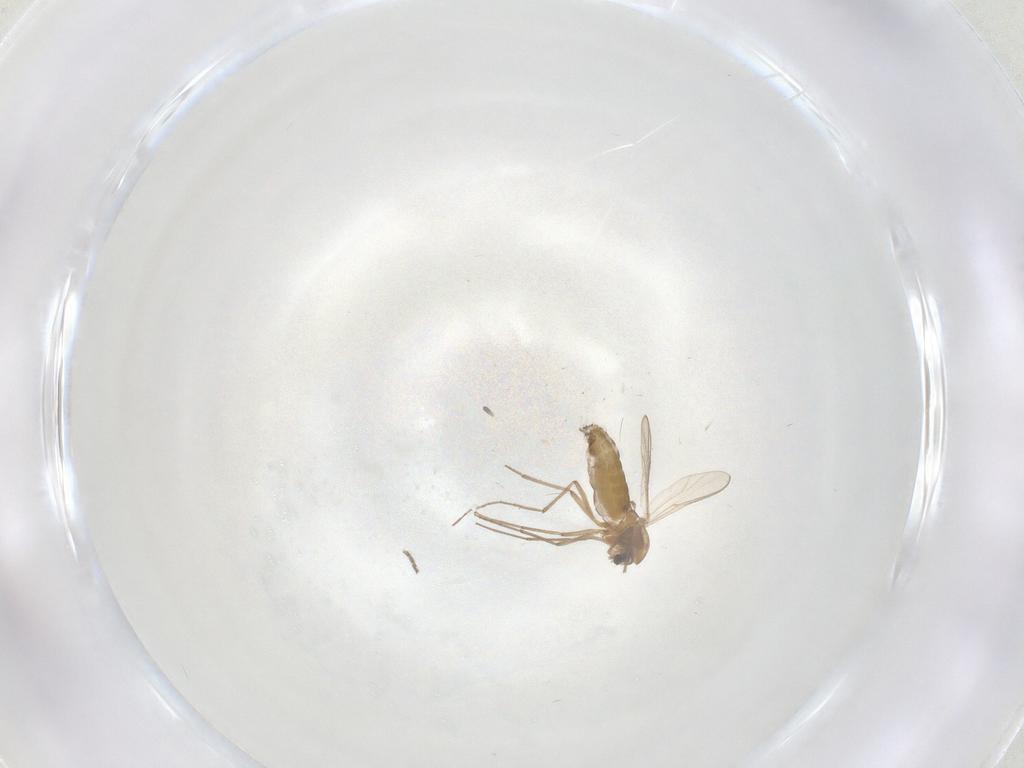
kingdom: Animalia
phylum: Arthropoda
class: Insecta
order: Diptera
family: Chironomidae
